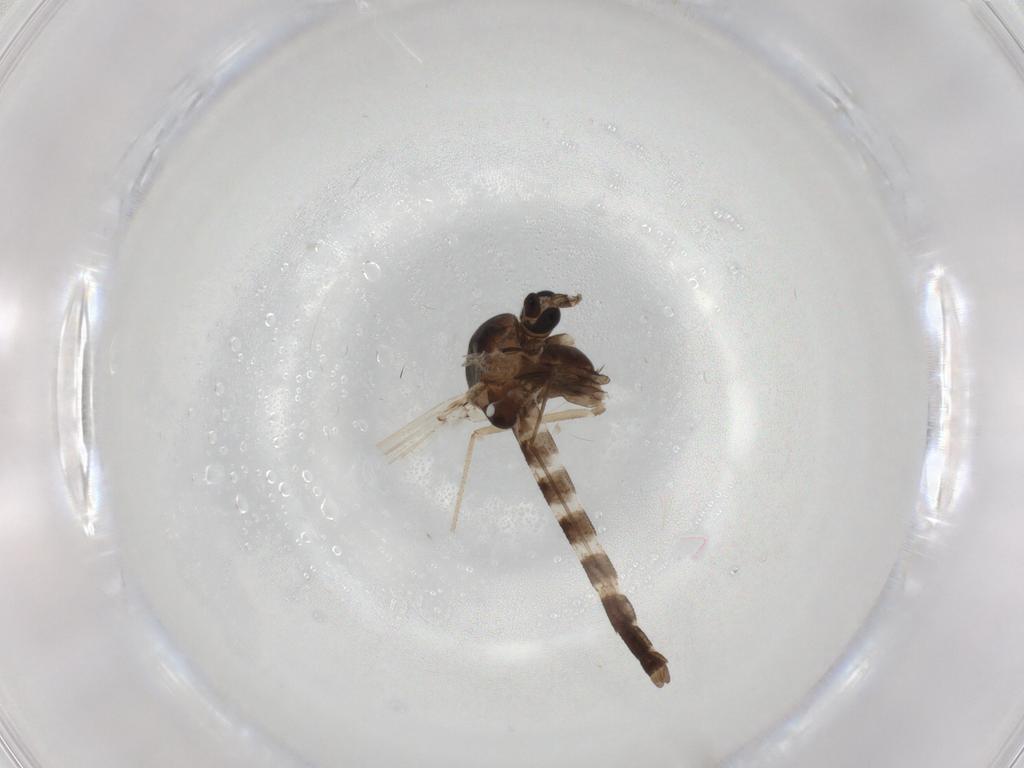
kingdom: Animalia
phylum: Arthropoda
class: Insecta
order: Diptera
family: Chironomidae
